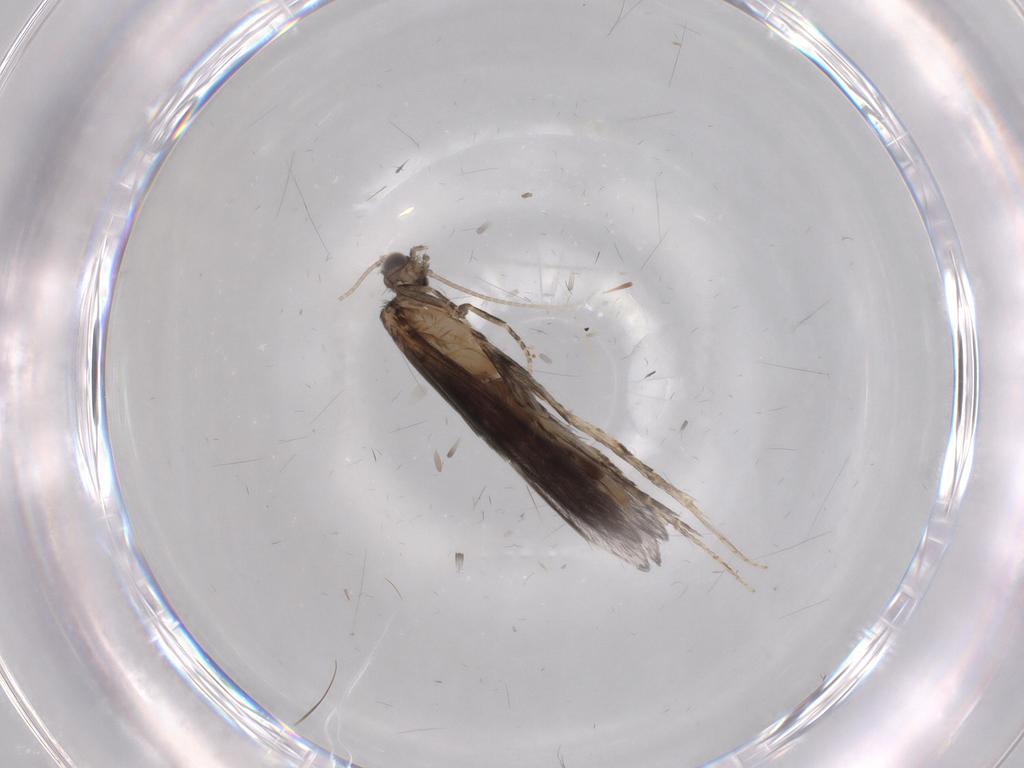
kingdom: Animalia
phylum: Arthropoda
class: Insecta
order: Trichoptera
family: Hydroptilidae
